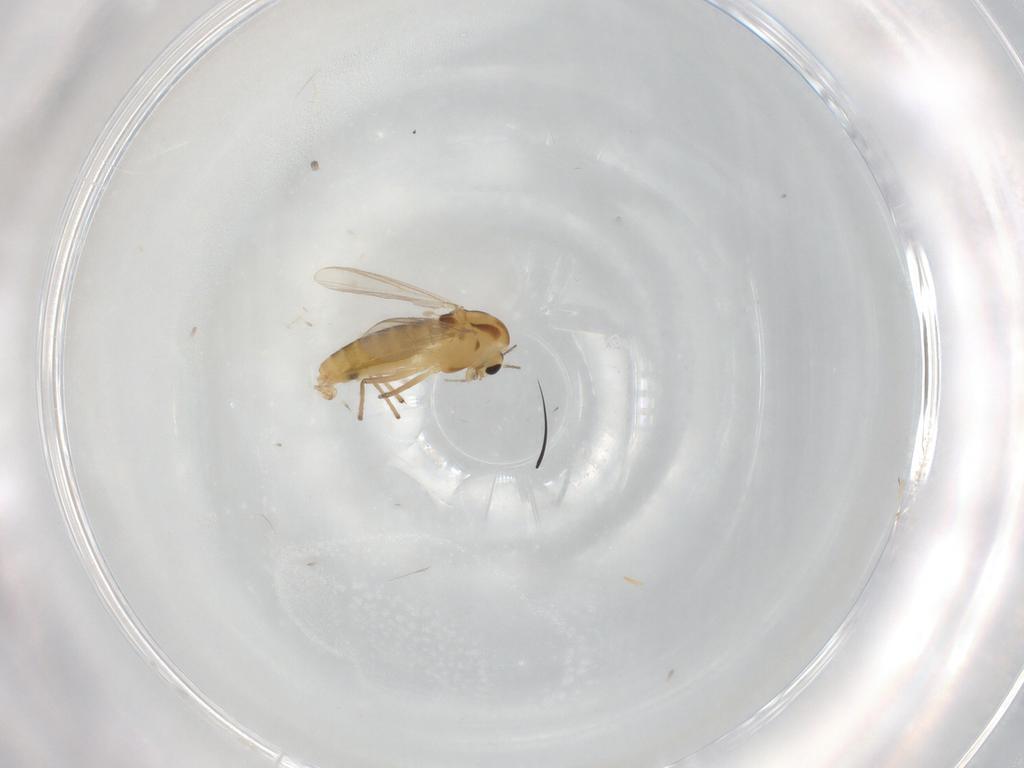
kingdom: Animalia
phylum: Arthropoda
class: Insecta
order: Diptera
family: Chironomidae
